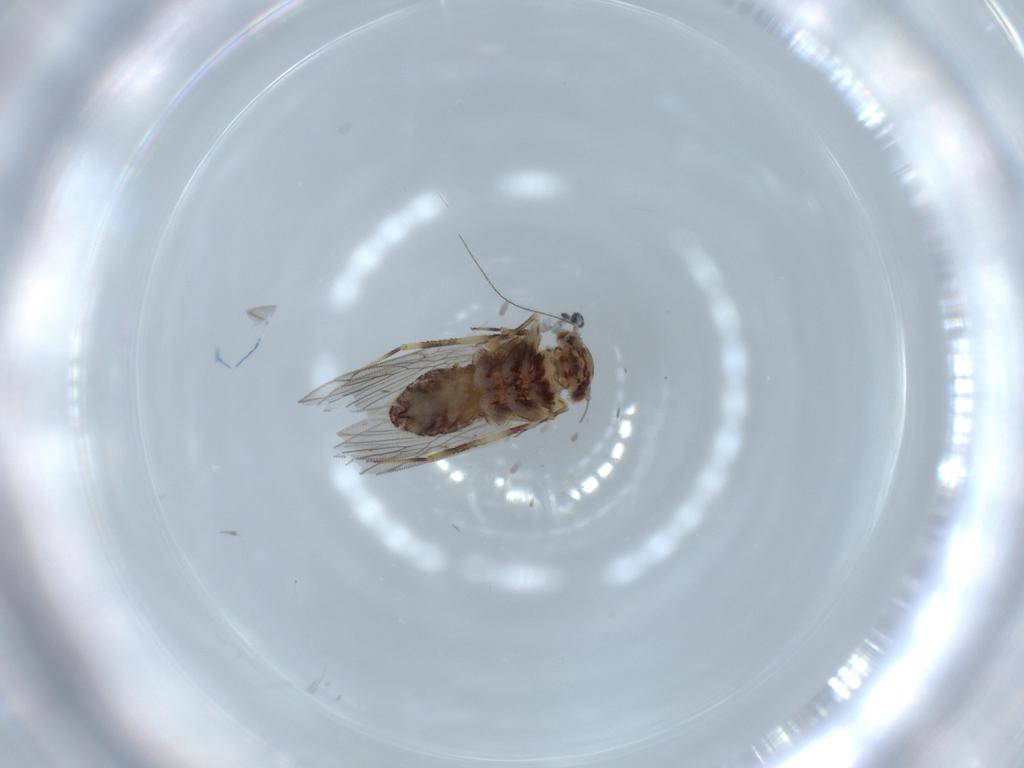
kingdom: Animalia
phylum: Arthropoda
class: Insecta
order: Psocodea
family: Lepidopsocidae
